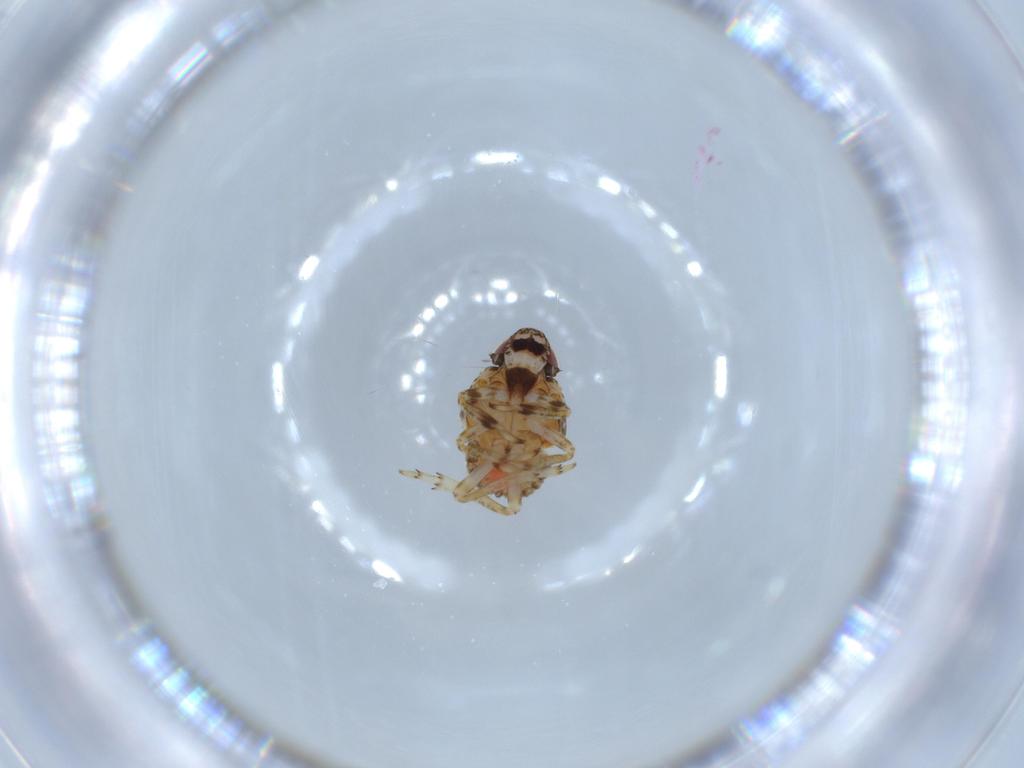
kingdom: Animalia
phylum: Arthropoda
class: Insecta
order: Hemiptera
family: Issidae
